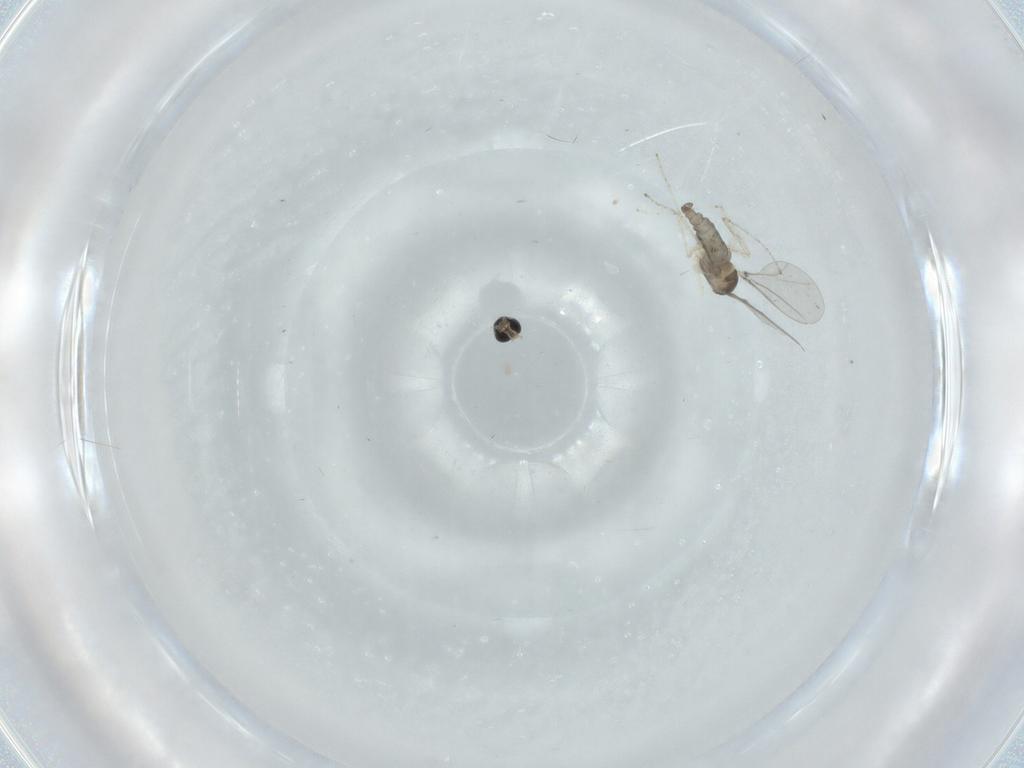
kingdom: Animalia
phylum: Arthropoda
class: Insecta
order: Diptera
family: Cecidomyiidae
